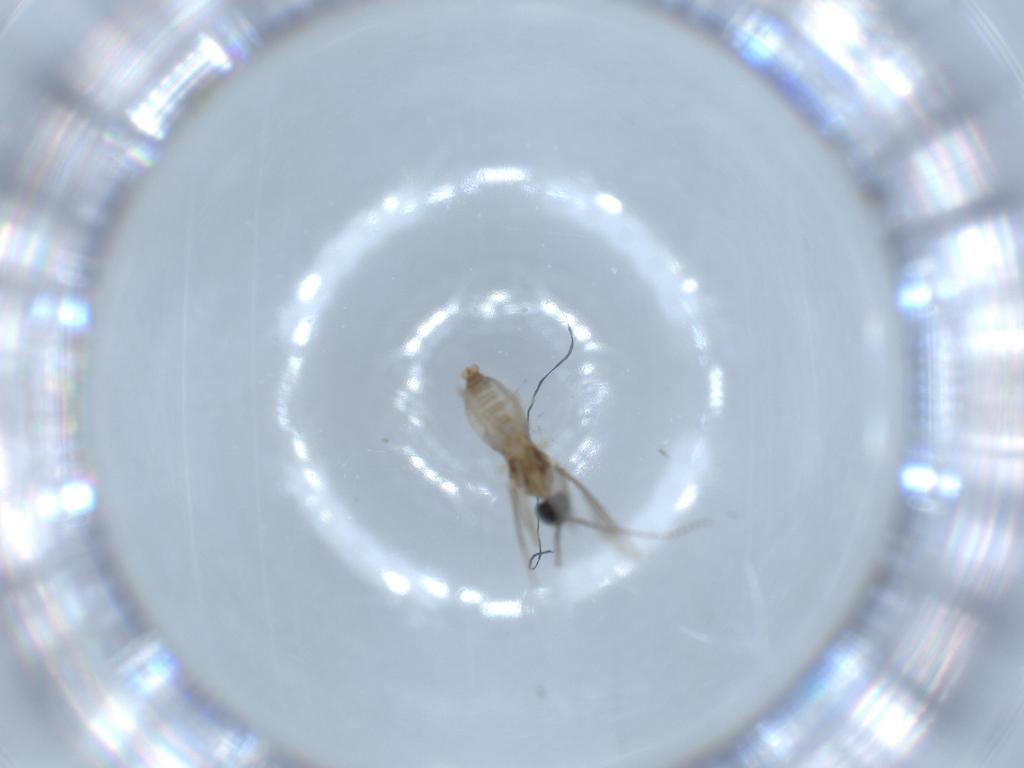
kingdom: Animalia
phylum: Arthropoda
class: Insecta
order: Diptera
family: Cecidomyiidae
